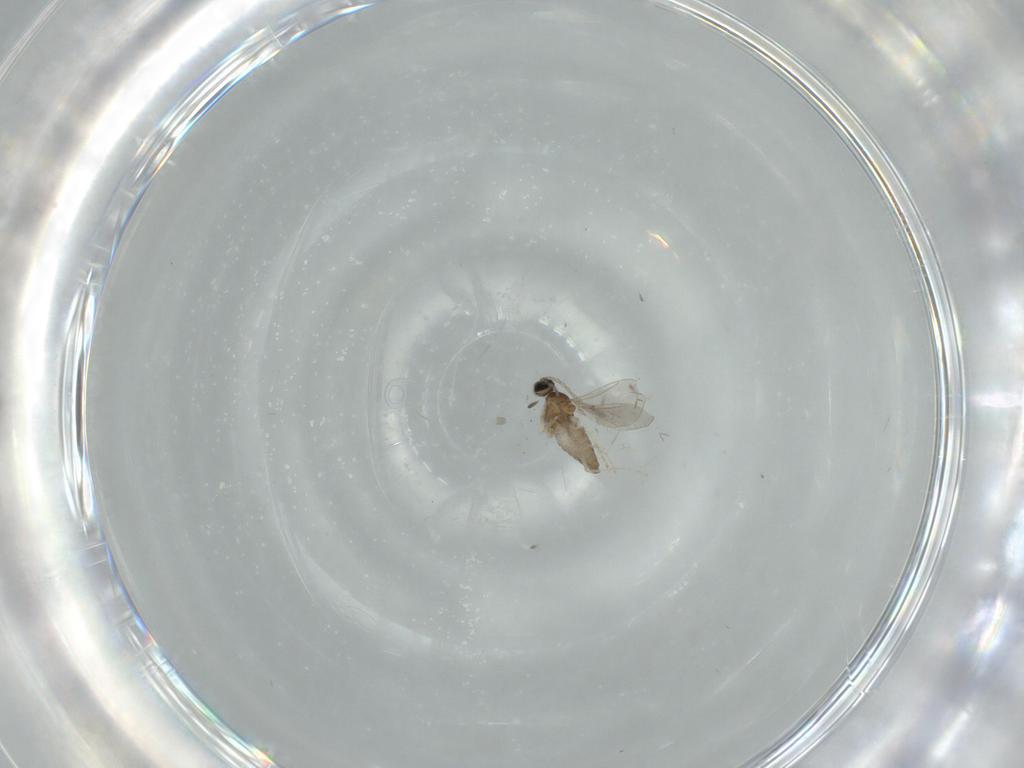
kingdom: Animalia
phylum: Arthropoda
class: Insecta
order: Diptera
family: Cecidomyiidae
